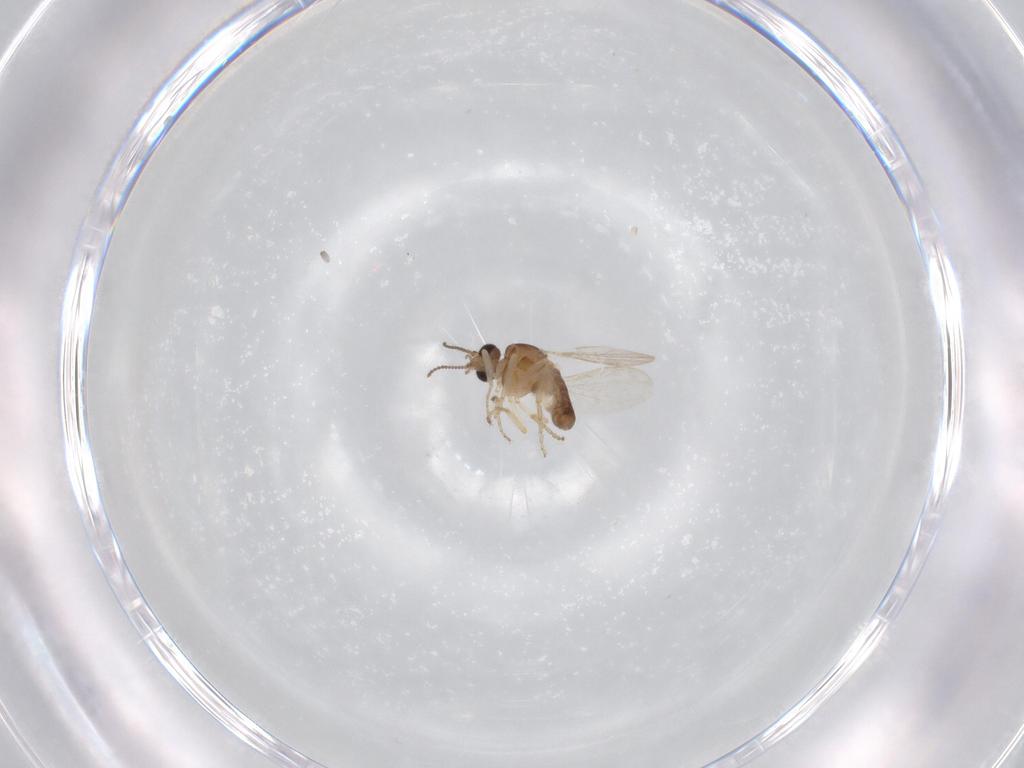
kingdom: Animalia
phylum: Arthropoda
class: Insecta
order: Diptera
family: Ceratopogonidae
